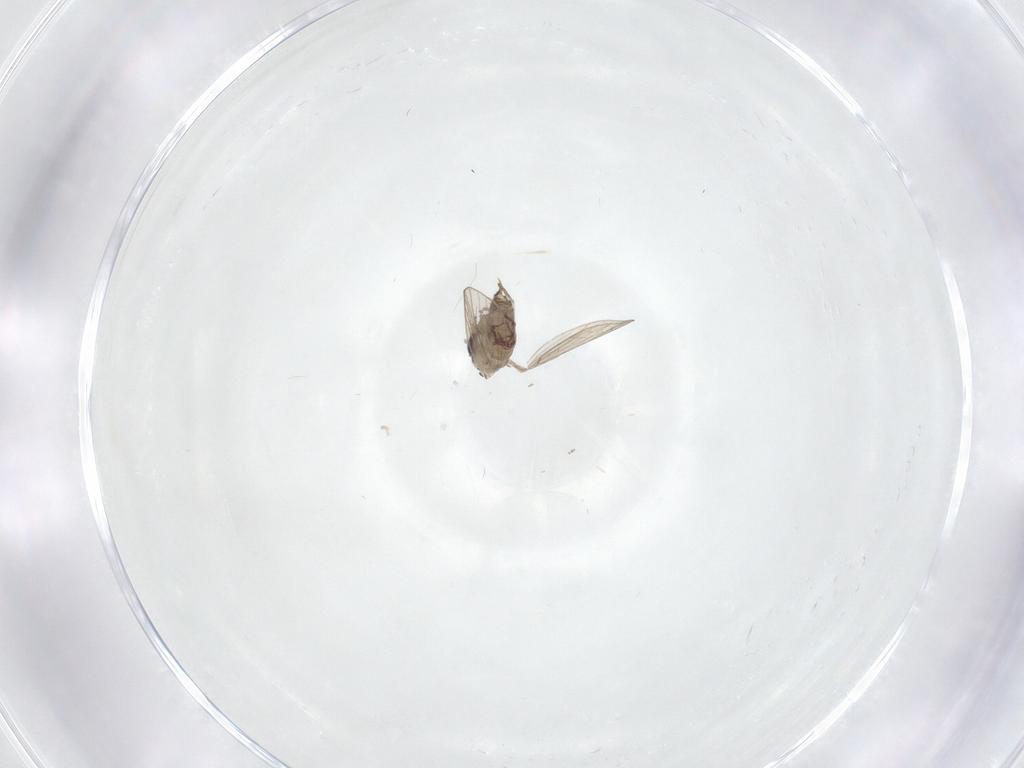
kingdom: Animalia
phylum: Arthropoda
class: Insecta
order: Diptera
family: Psychodidae
